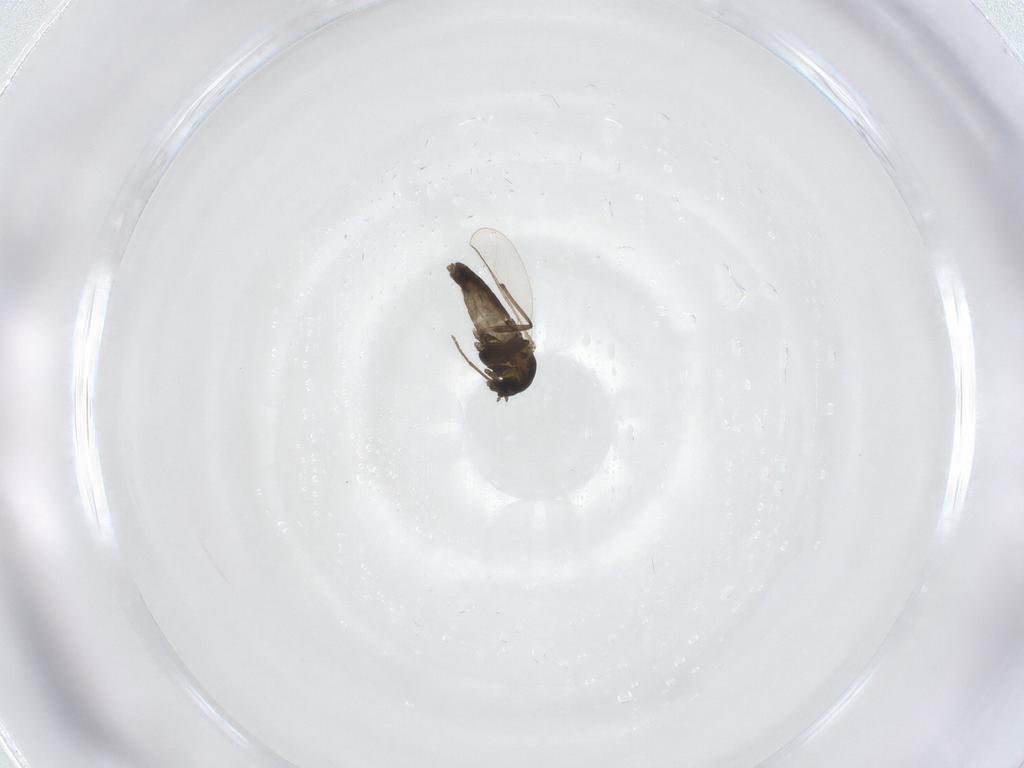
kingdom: Animalia
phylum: Arthropoda
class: Insecta
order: Diptera
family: Chironomidae
